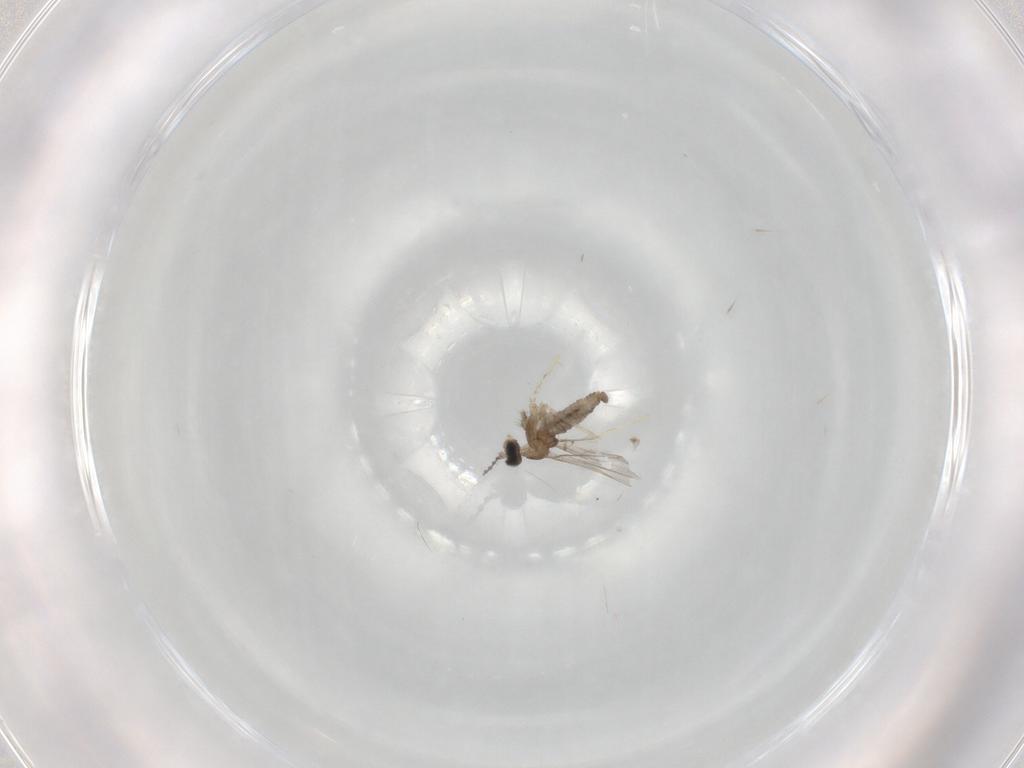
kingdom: Animalia
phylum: Arthropoda
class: Insecta
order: Diptera
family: Cecidomyiidae
